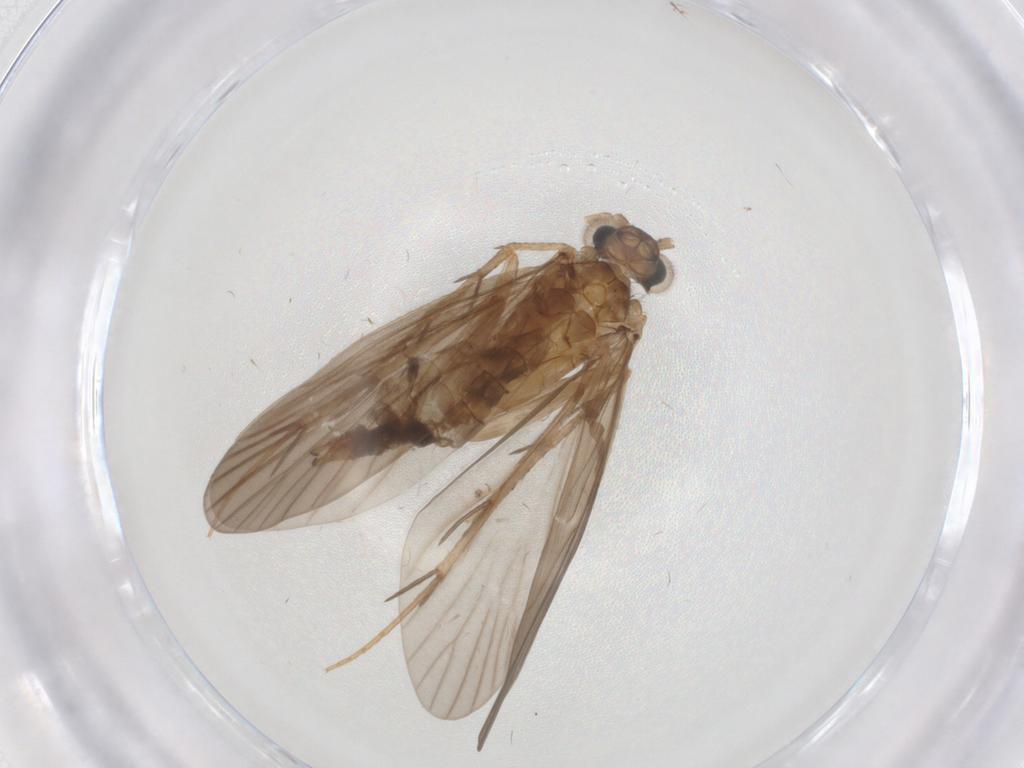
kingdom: Animalia
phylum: Arthropoda
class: Insecta
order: Trichoptera
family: Philopotamidae
